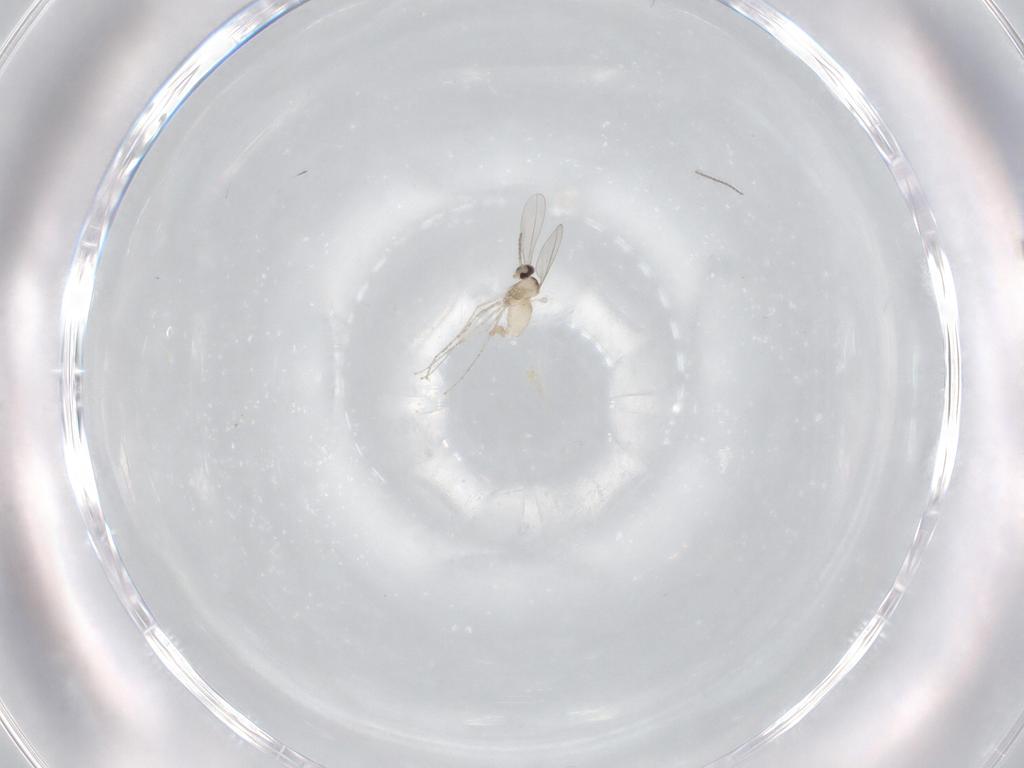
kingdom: Animalia
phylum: Arthropoda
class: Insecta
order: Diptera
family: Cecidomyiidae
